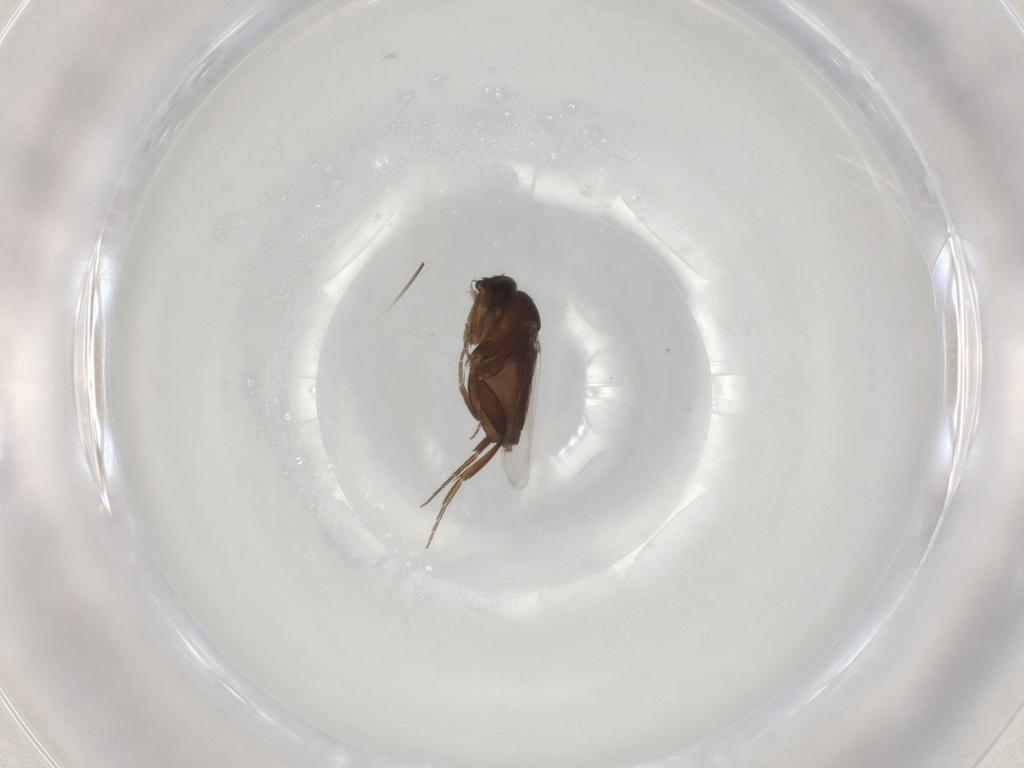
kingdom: Animalia
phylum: Arthropoda
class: Insecta
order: Diptera
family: Phoridae
